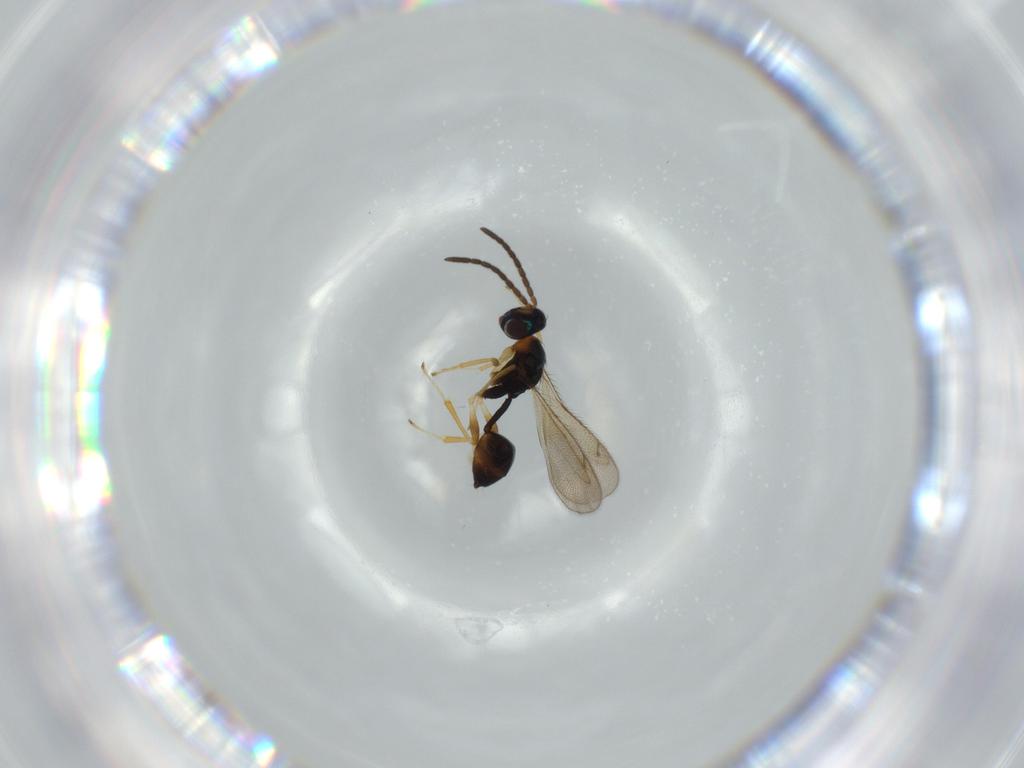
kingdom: Animalia
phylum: Arthropoda
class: Insecta
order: Hymenoptera
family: Diparidae
